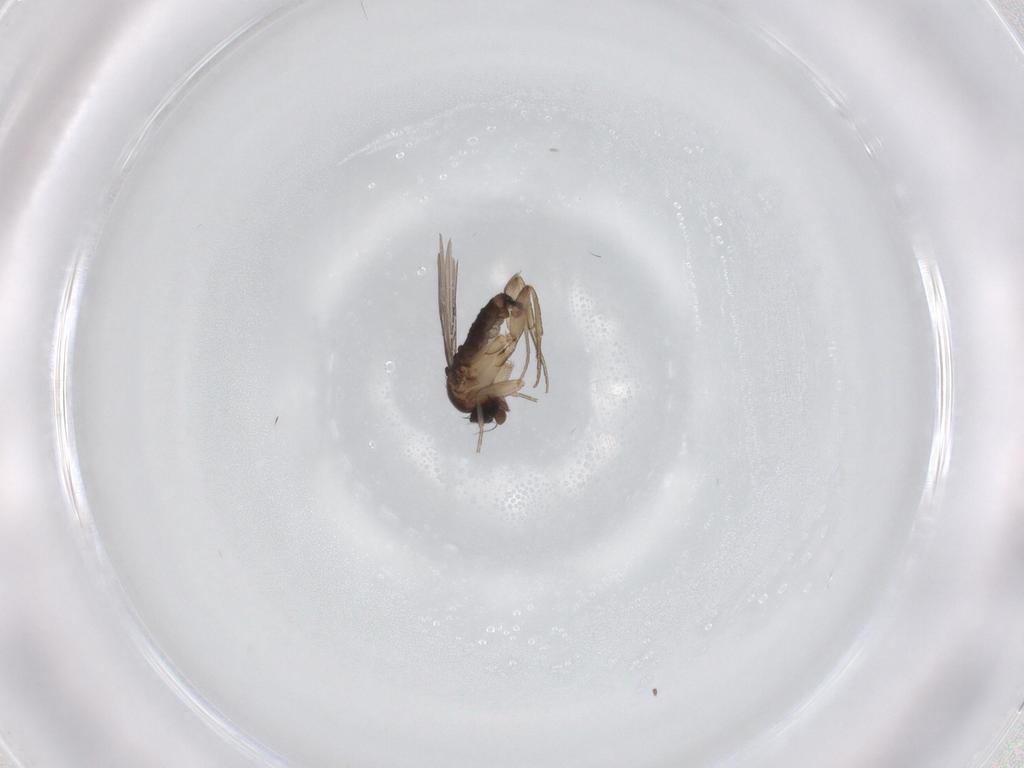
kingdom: Animalia
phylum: Arthropoda
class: Insecta
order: Diptera
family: Phoridae
